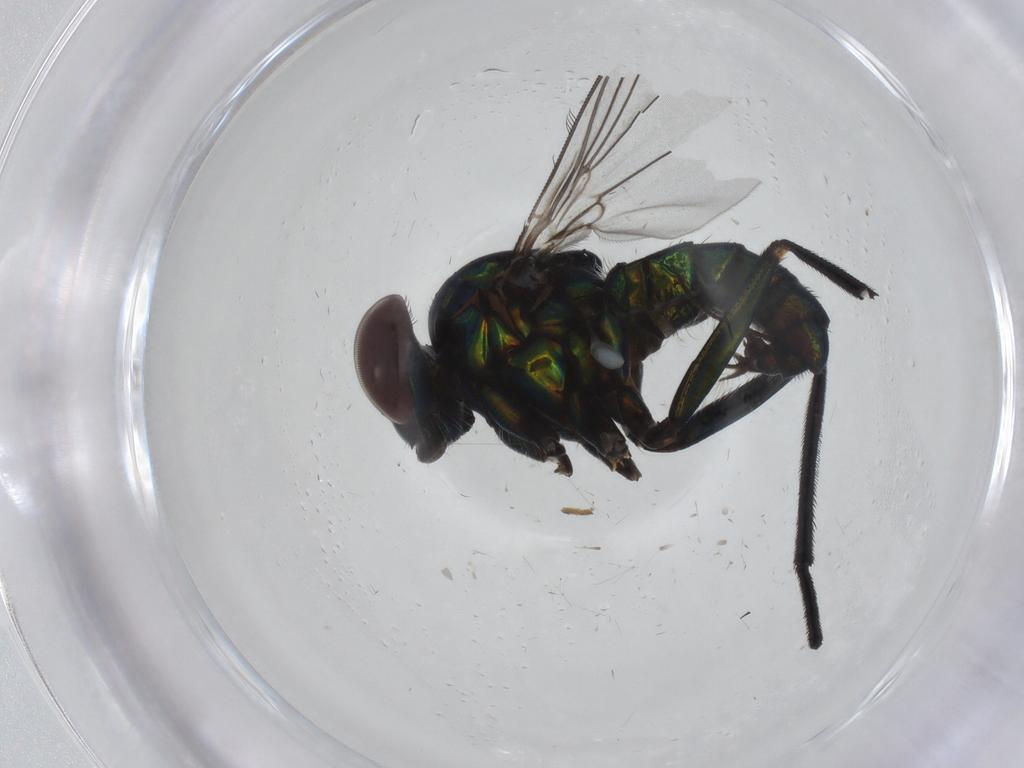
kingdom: Animalia
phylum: Arthropoda
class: Insecta
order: Diptera
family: Dolichopodidae
